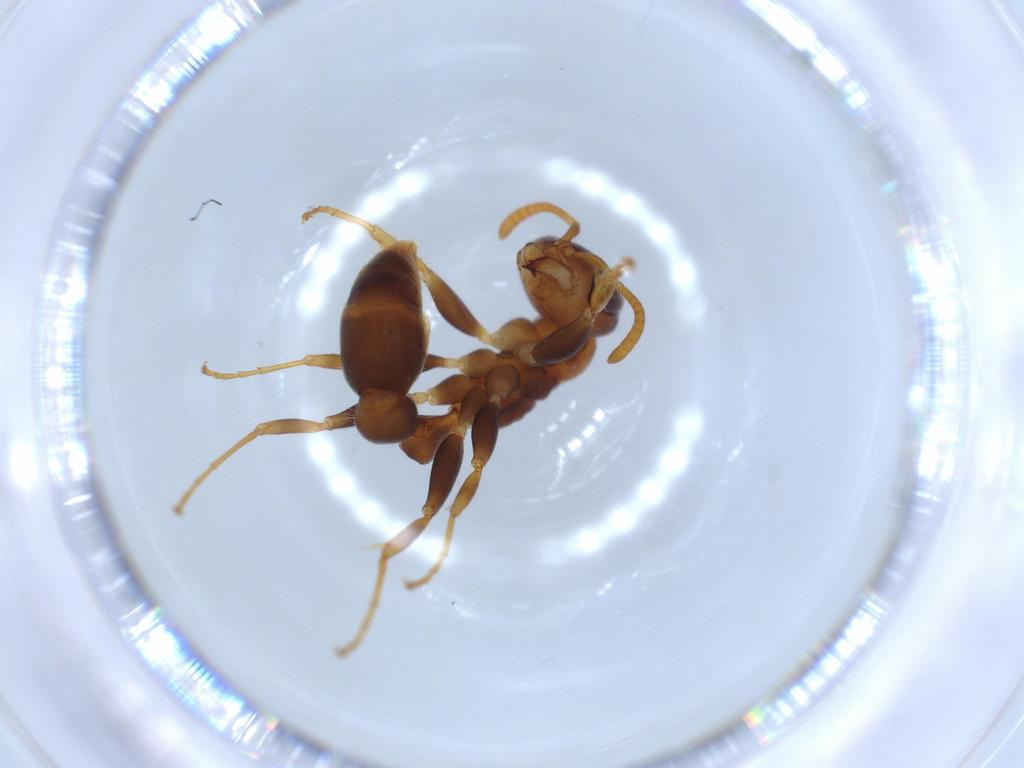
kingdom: Animalia
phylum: Arthropoda
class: Insecta
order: Hymenoptera
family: Formicidae
